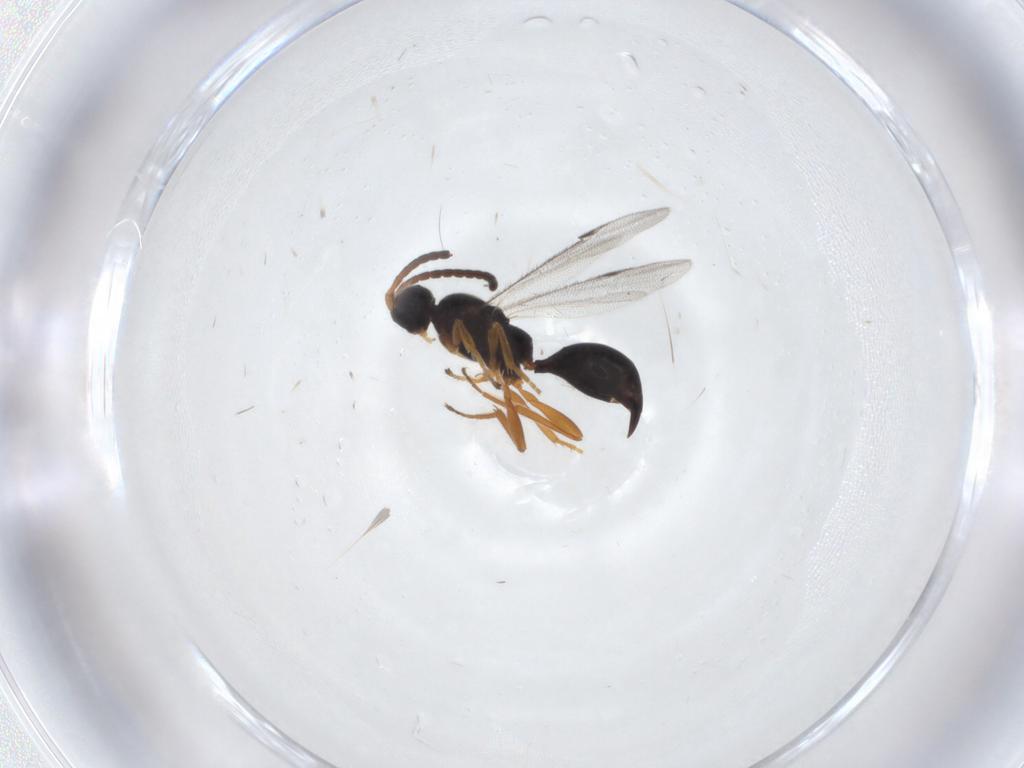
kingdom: Animalia
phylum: Arthropoda
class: Insecta
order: Hymenoptera
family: Proctotrupidae
